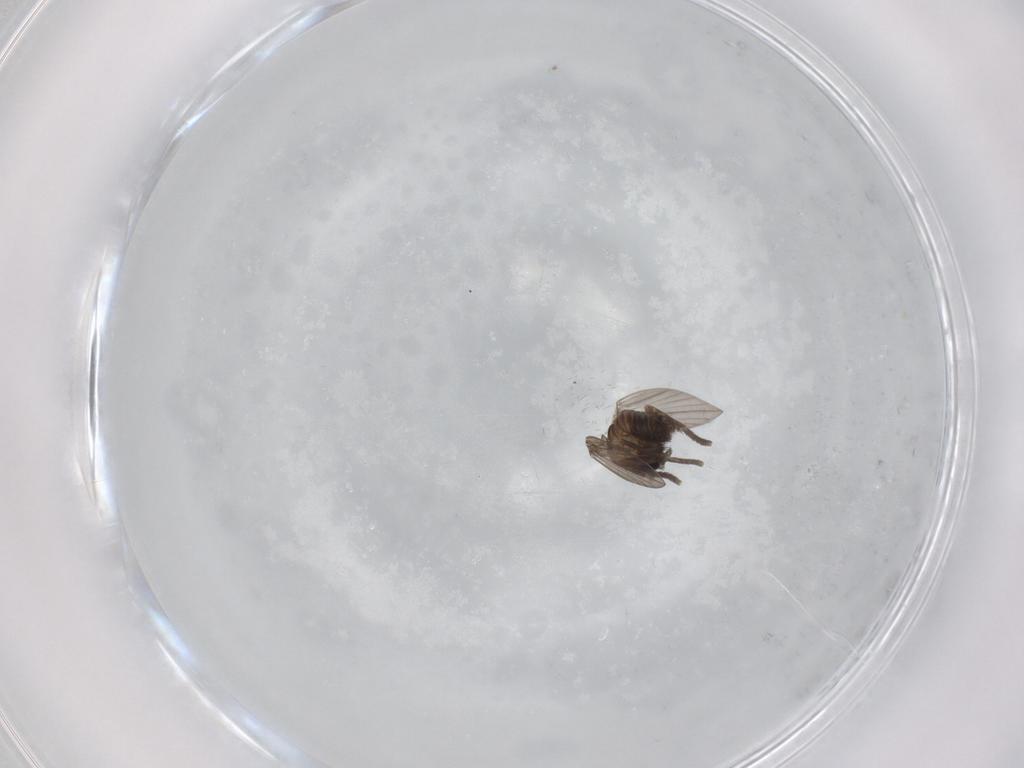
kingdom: Animalia
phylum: Arthropoda
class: Insecta
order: Diptera
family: Psychodidae
